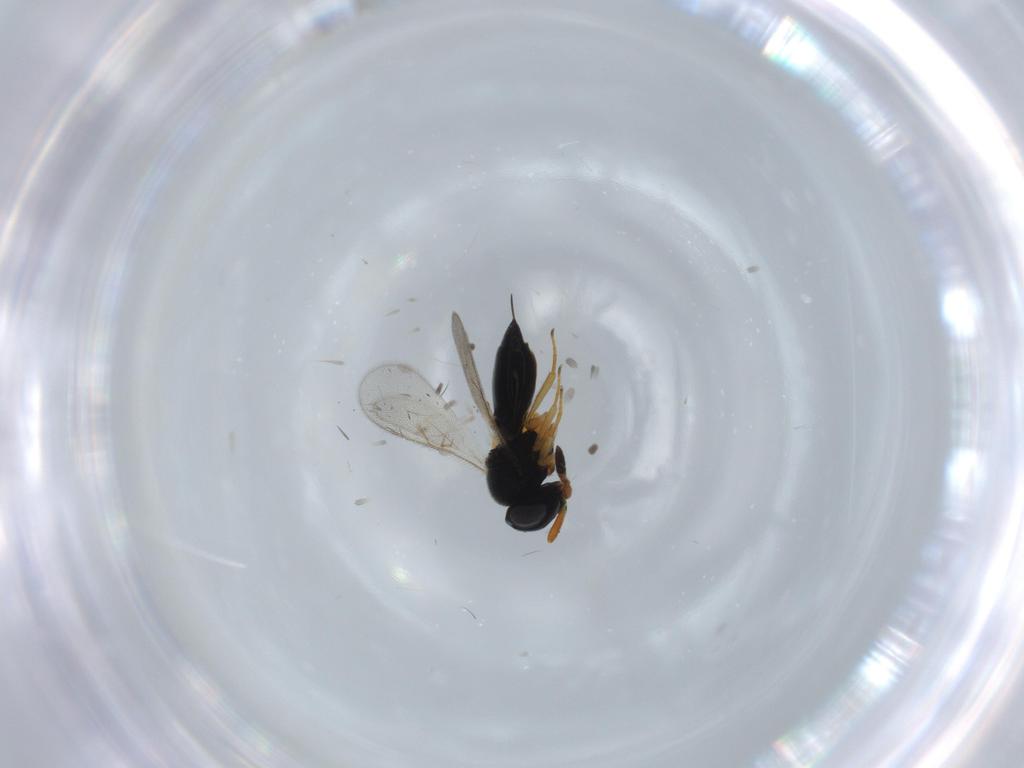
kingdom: Animalia
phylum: Arthropoda
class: Insecta
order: Hymenoptera
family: Scelionidae
